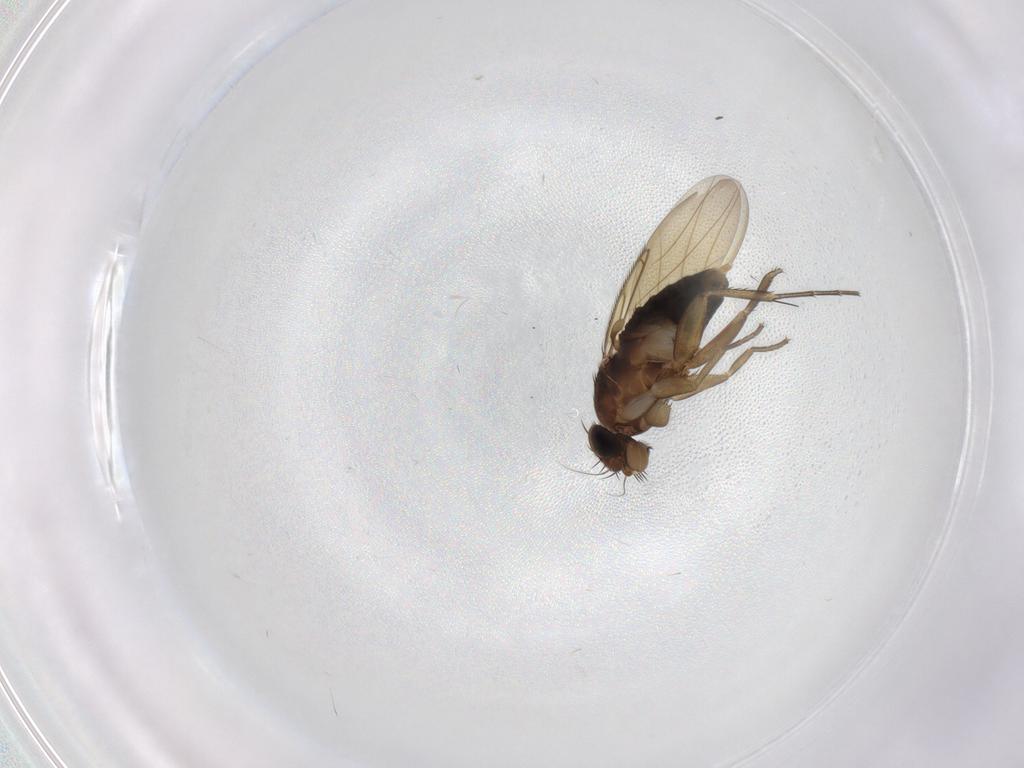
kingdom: Animalia
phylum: Arthropoda
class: Insecta
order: Diptera
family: Phoridae
